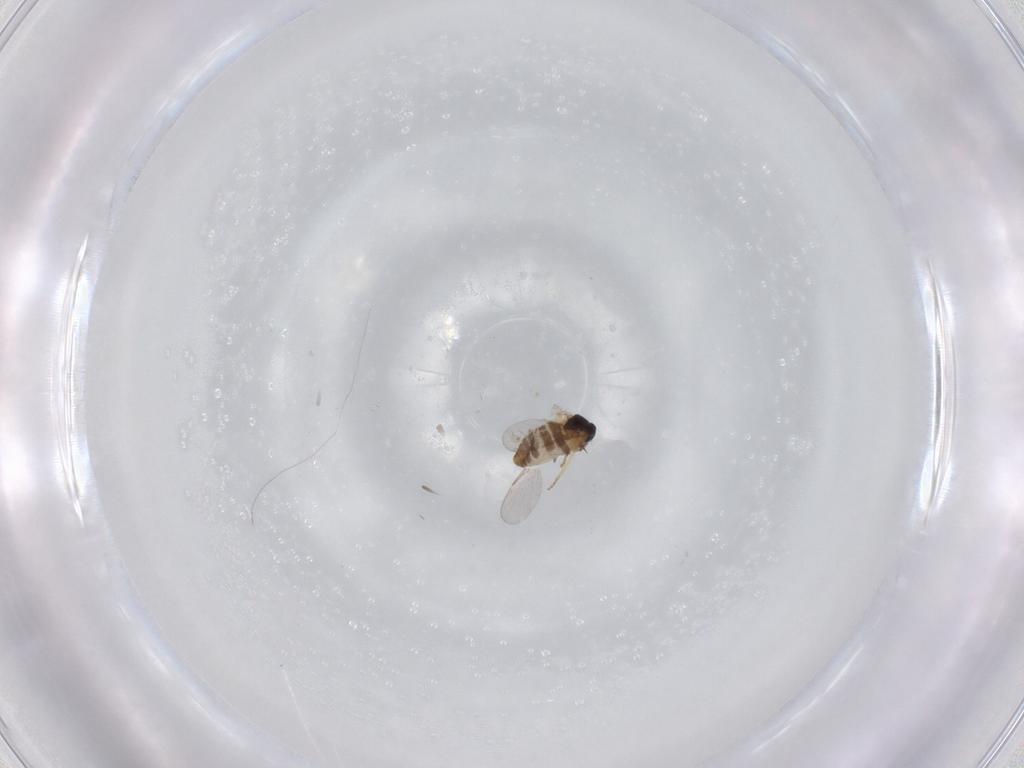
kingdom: Animalia
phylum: Arthropoda
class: Insecta
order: Diptera
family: Ceratopogonidae
